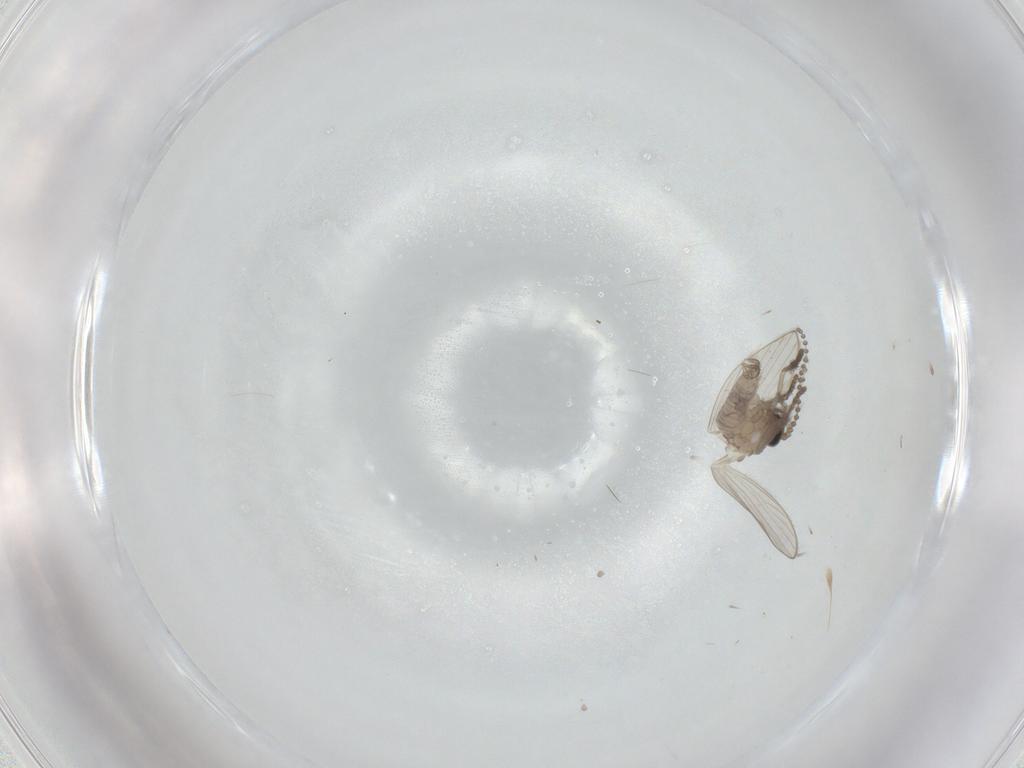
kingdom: Animalia
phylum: Arthropoda
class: Insecta
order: Diptera
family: Psychodidae
